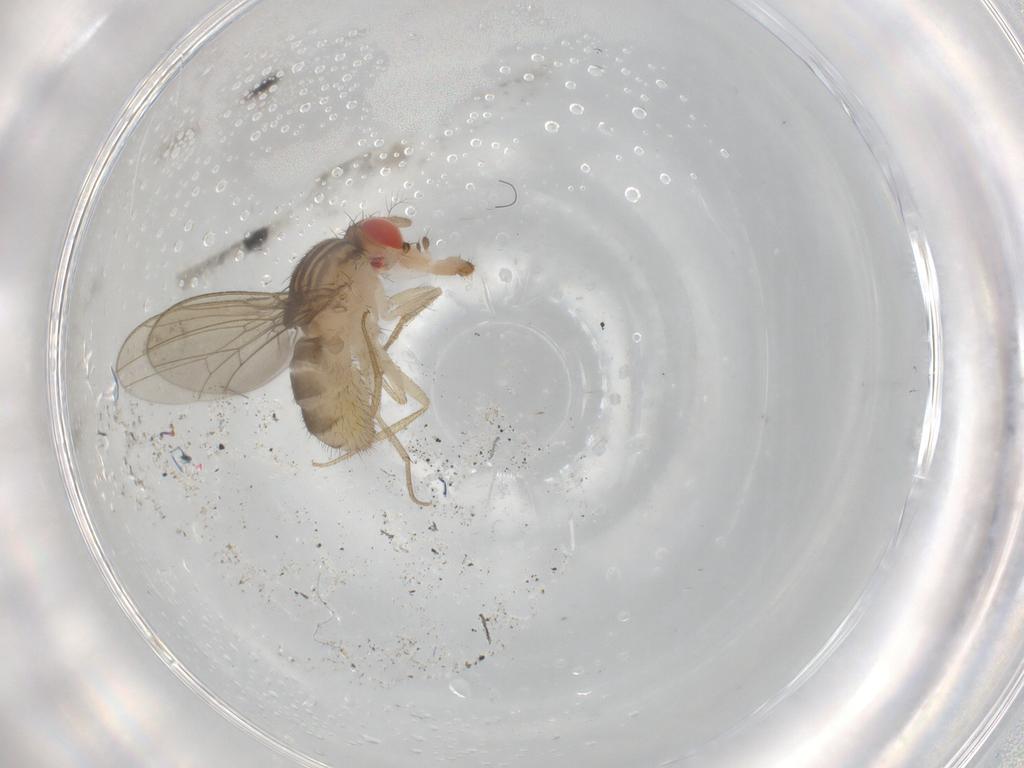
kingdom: Animalia
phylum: Arthropoda
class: Insecta
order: Diptera
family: Drosophilidae
